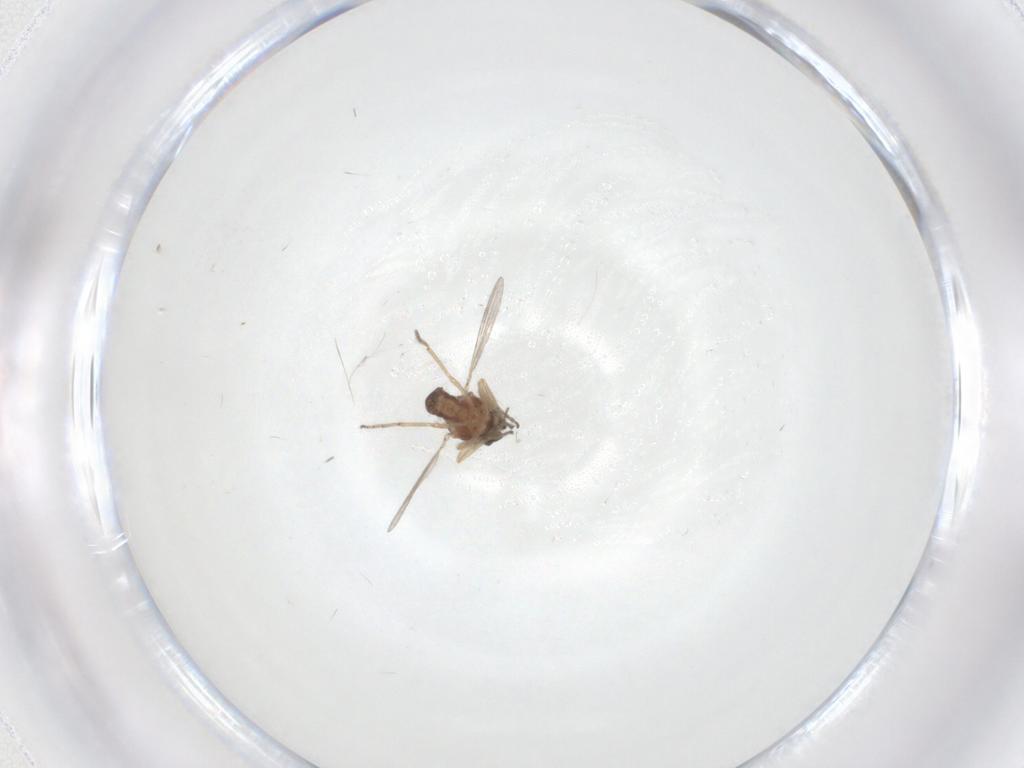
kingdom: Animalia
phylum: Arthropoda
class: Insecta
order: Diptera
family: Ceratopogonidae
